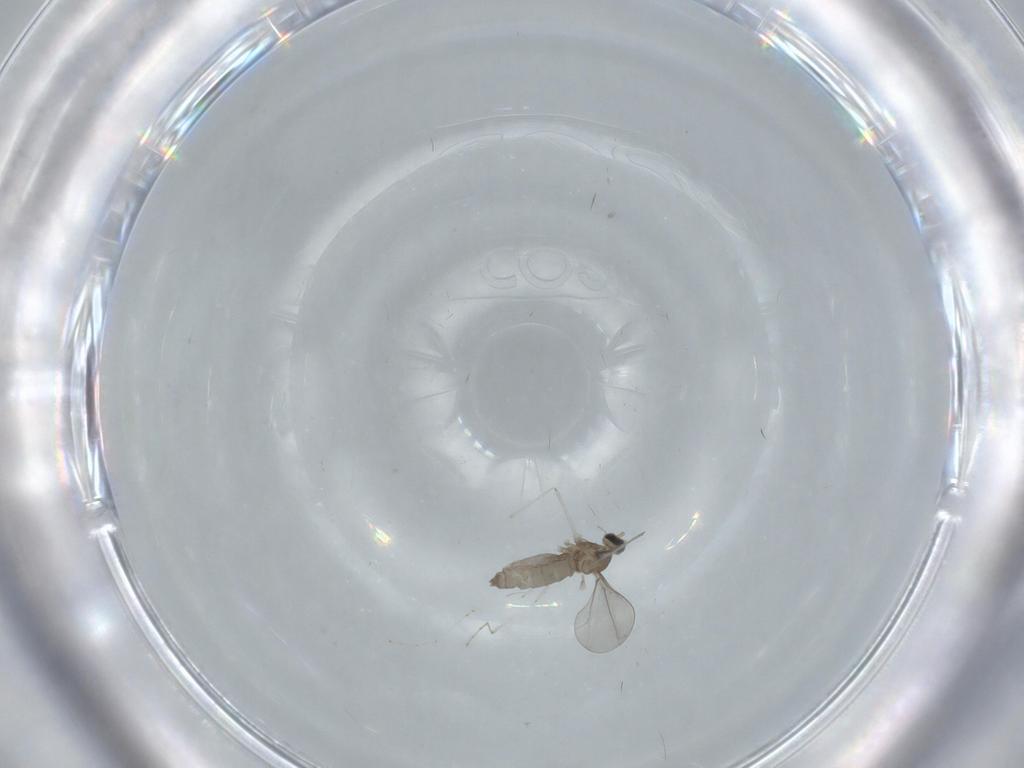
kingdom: Animalia
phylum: Arthropoda
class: Insecta
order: Diptera
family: Cecidomyiidae
